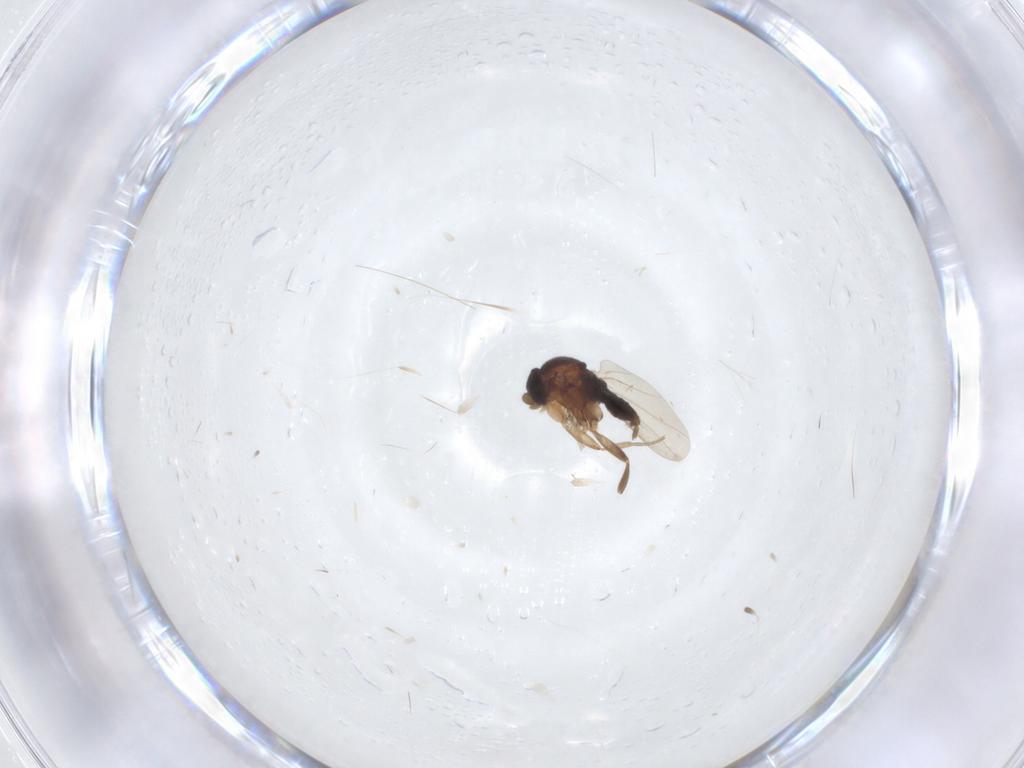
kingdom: Animalia
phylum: Arthropoda
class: Insecta
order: Diptera
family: Phoridae
